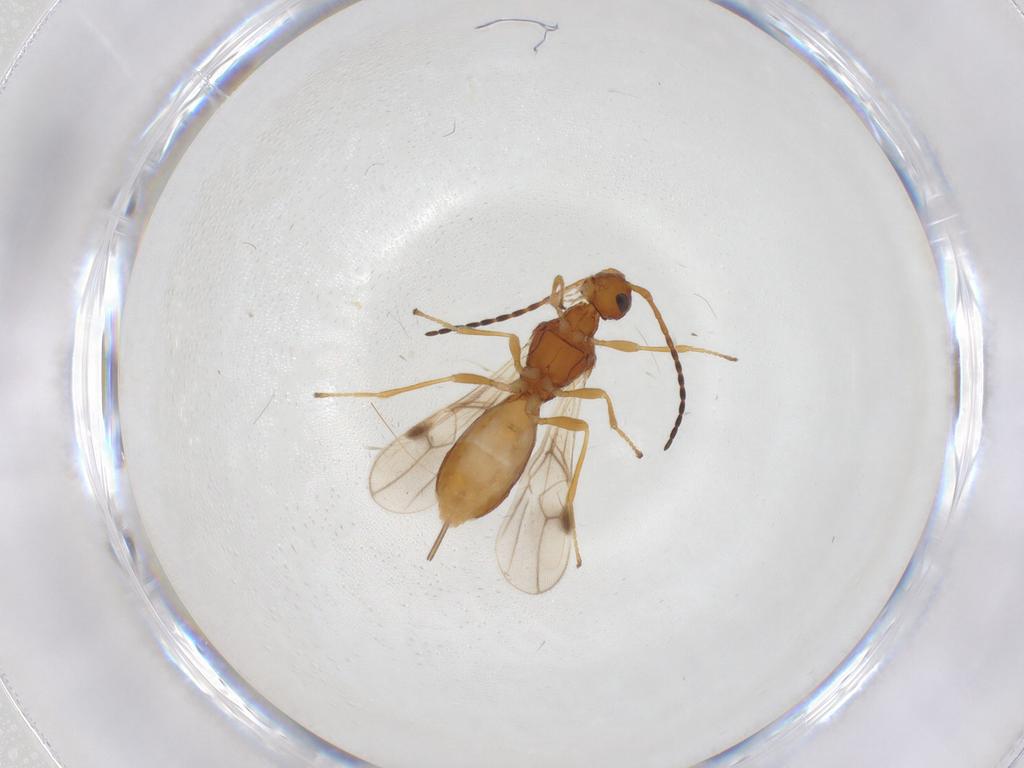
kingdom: Animalia
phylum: Arthropoda
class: Insecta
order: Hymenoptera
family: Braconidae
